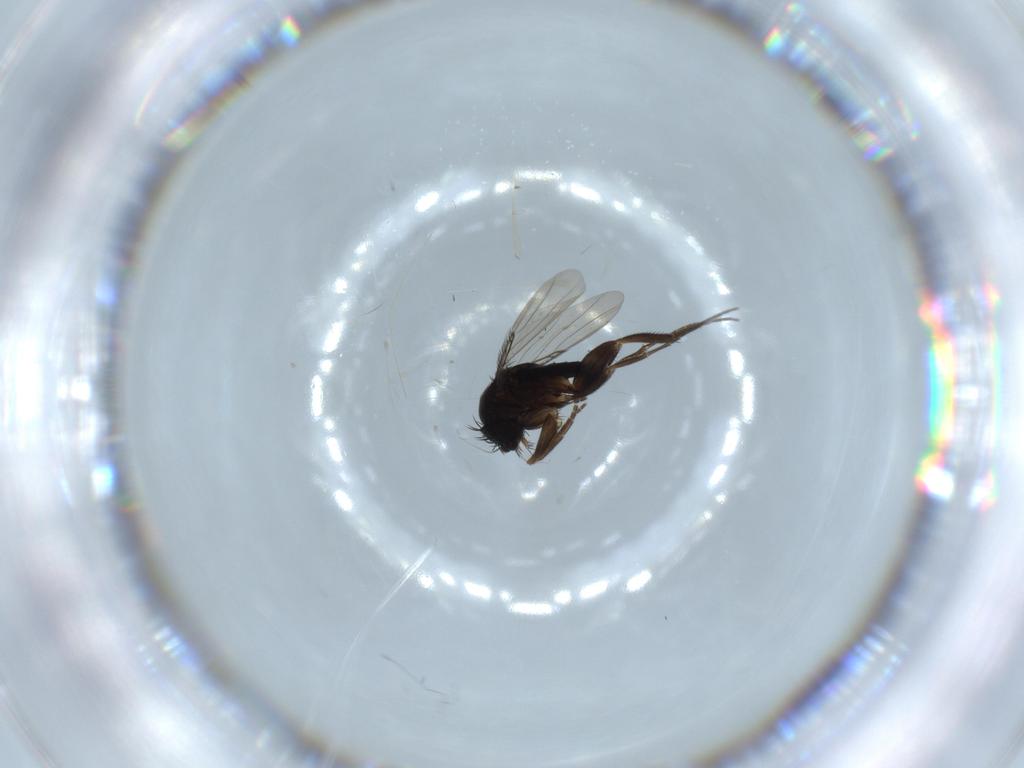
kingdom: Animalia
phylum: Arthropoda
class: Insecta
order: Diptera
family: Phoridae
